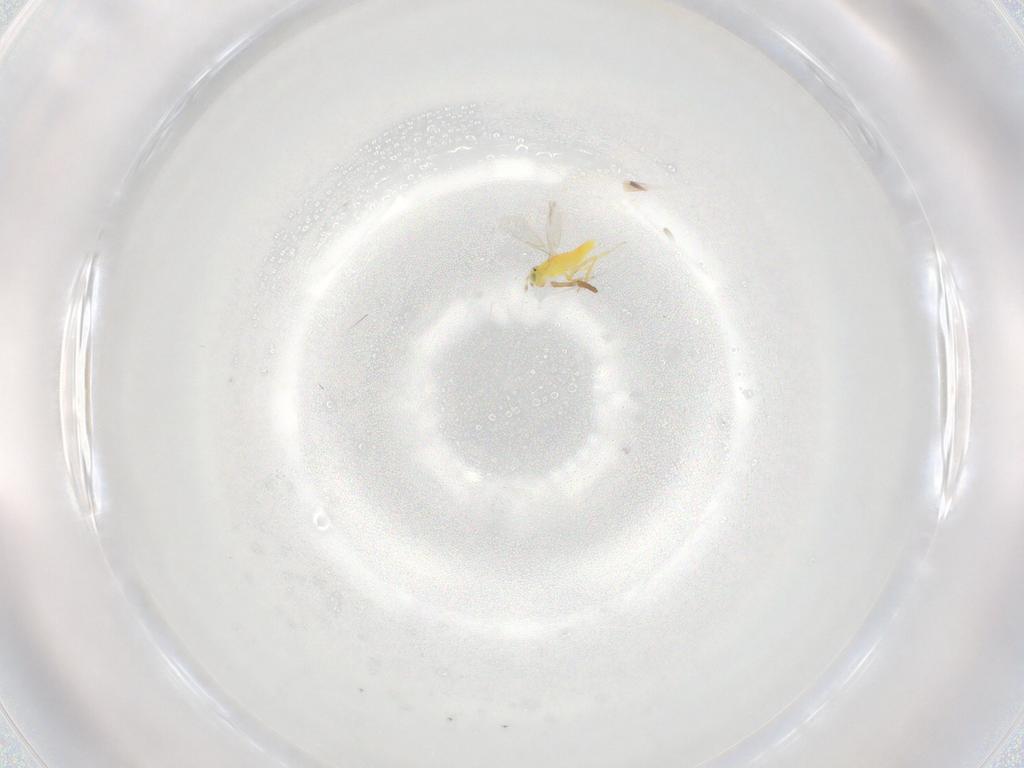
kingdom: Animalia
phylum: Arthropoda
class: Insecta
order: Hymenoptera
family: Aphelinidae
